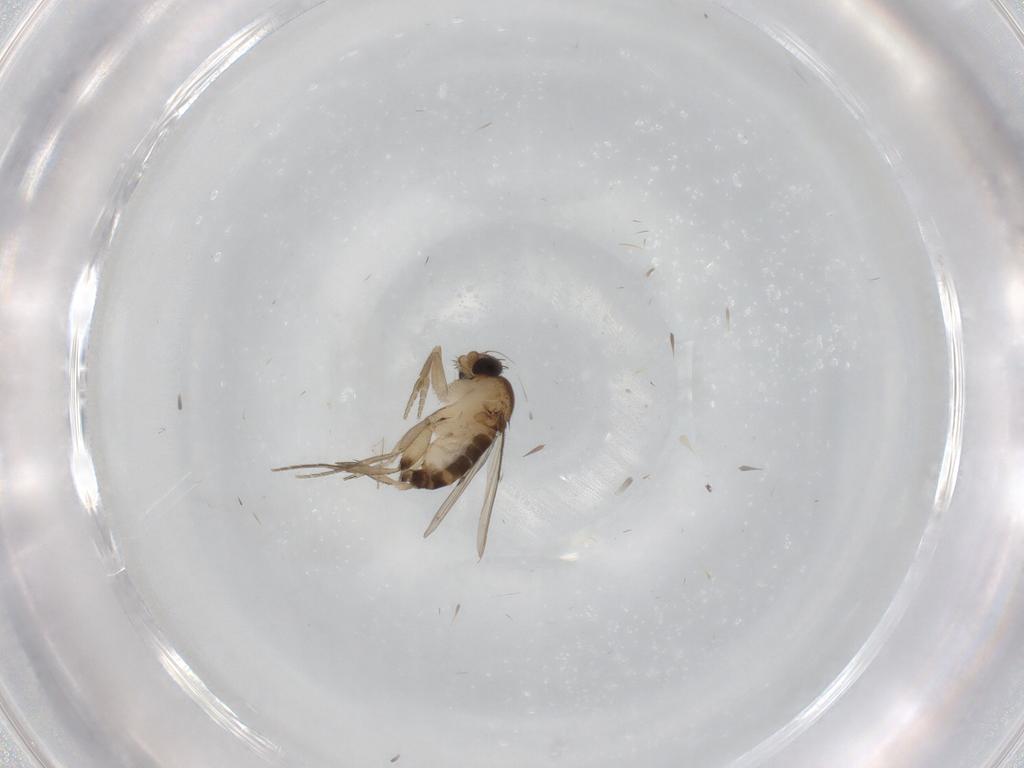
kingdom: Animalia
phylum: Arthropoda
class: Insecta
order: Diptera
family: Chironomidae
